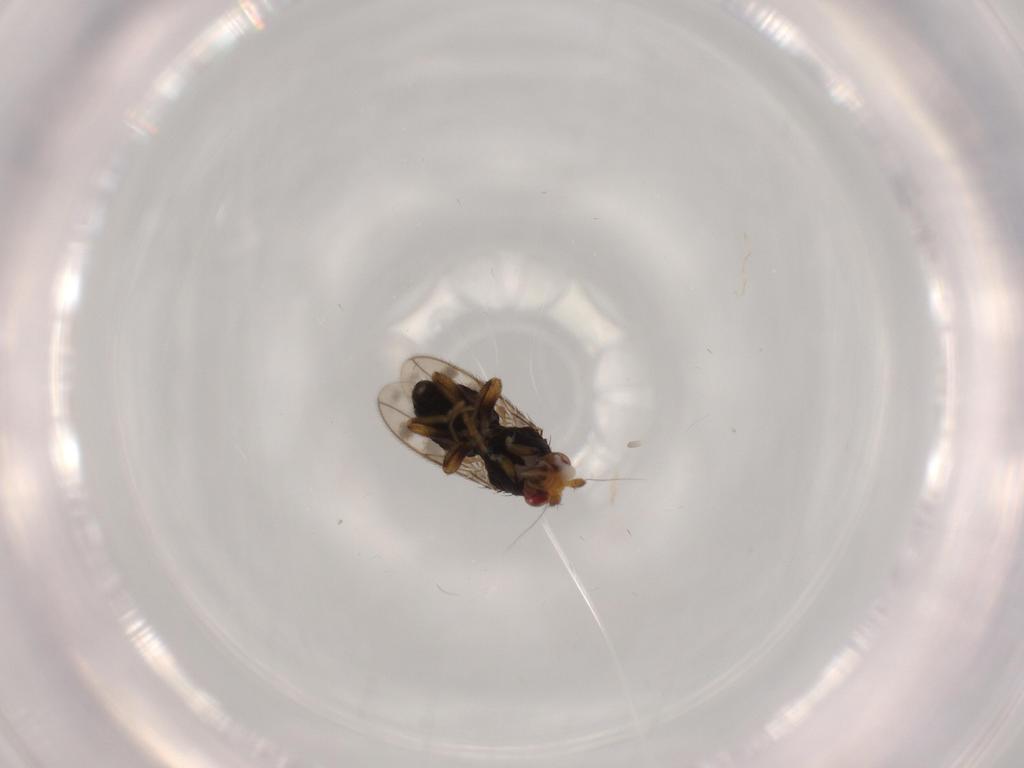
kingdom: Animalia
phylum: Arthropoda
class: Insecta
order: Diptera
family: Sphaeroceridae
